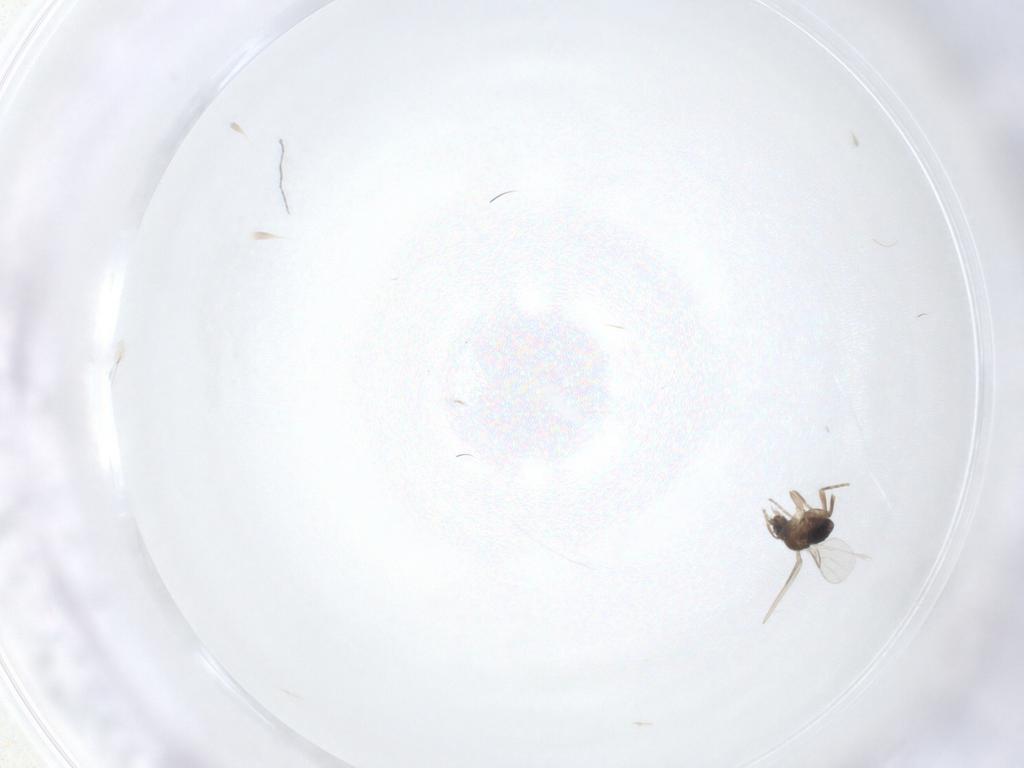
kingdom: Animalia
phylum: Arthropoda
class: Insecta
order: Diptera
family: Phoridae
